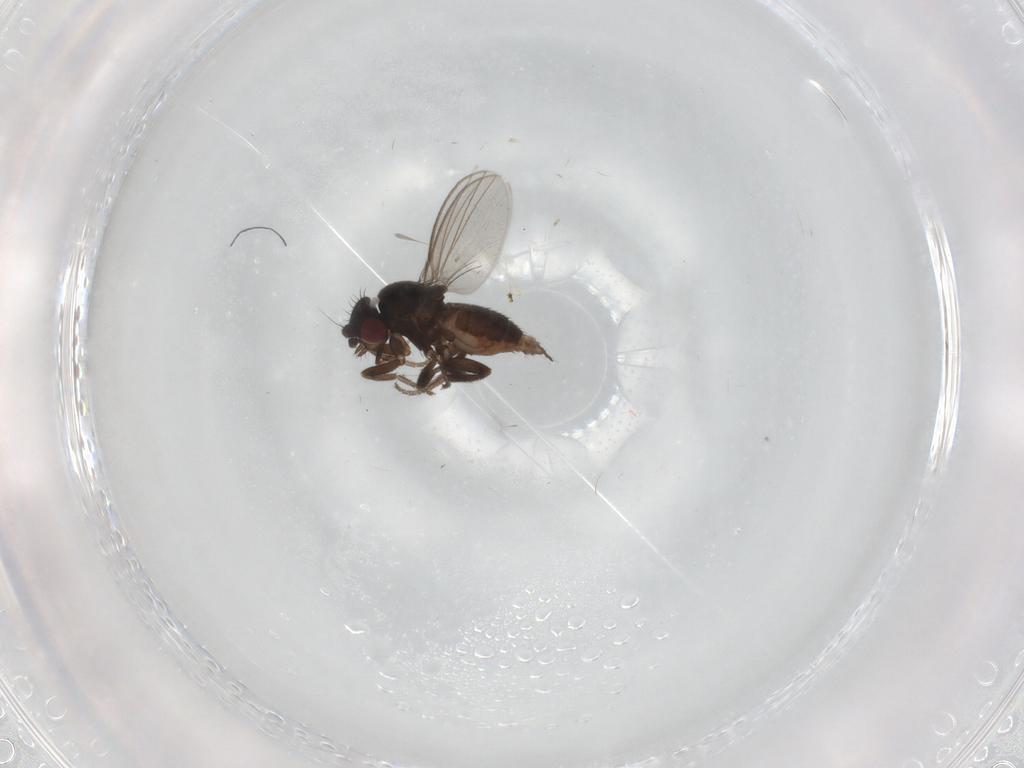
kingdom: Animalia
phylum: Arthropoda
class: Insecta
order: Diptera
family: Milichiidae
